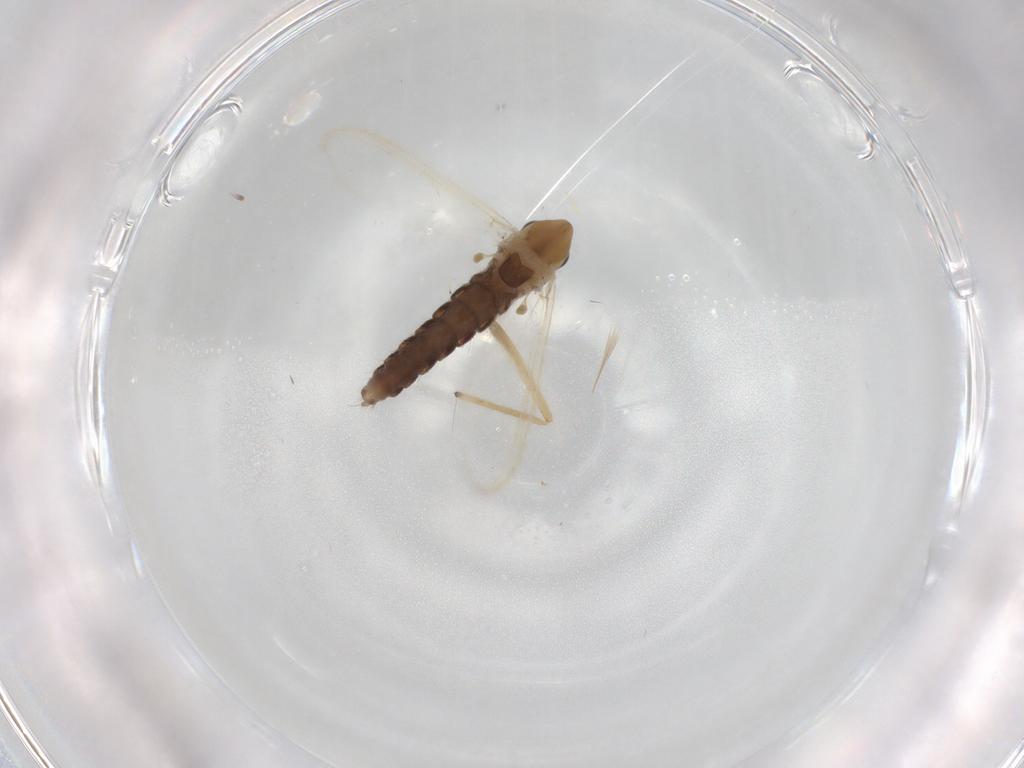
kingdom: Animalia
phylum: Arthropoda
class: Insecta
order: Diptera
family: Chironomidae
